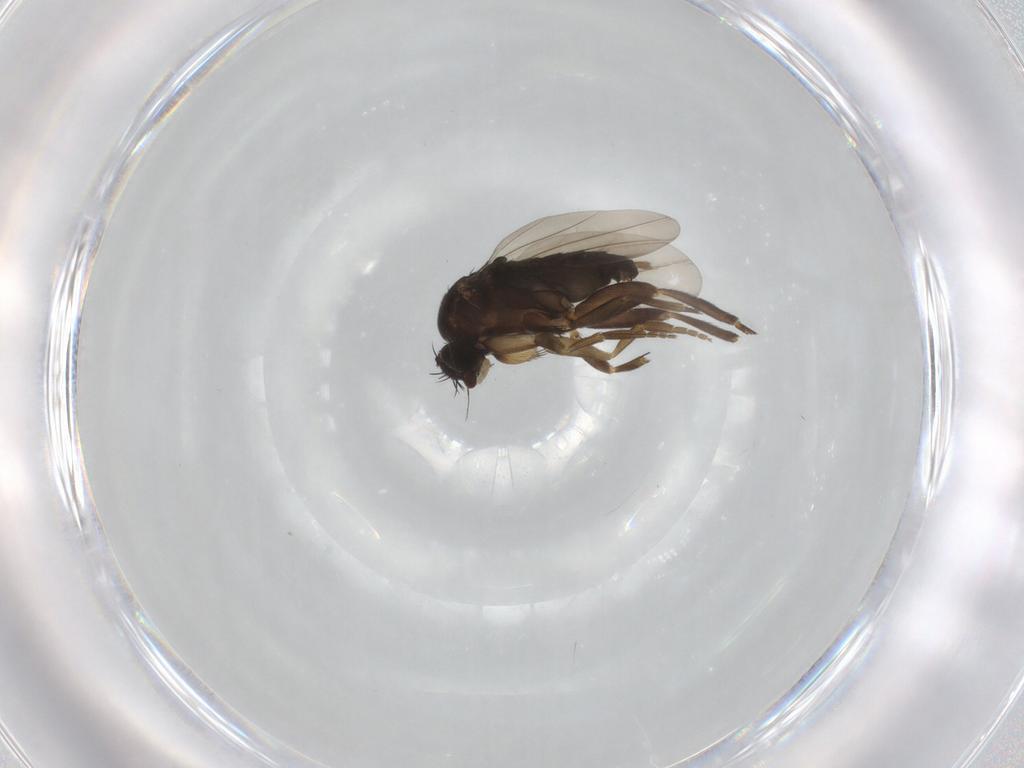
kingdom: Animalia
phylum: Arthropoda
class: Insecta
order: Diptera
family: Phoridae
